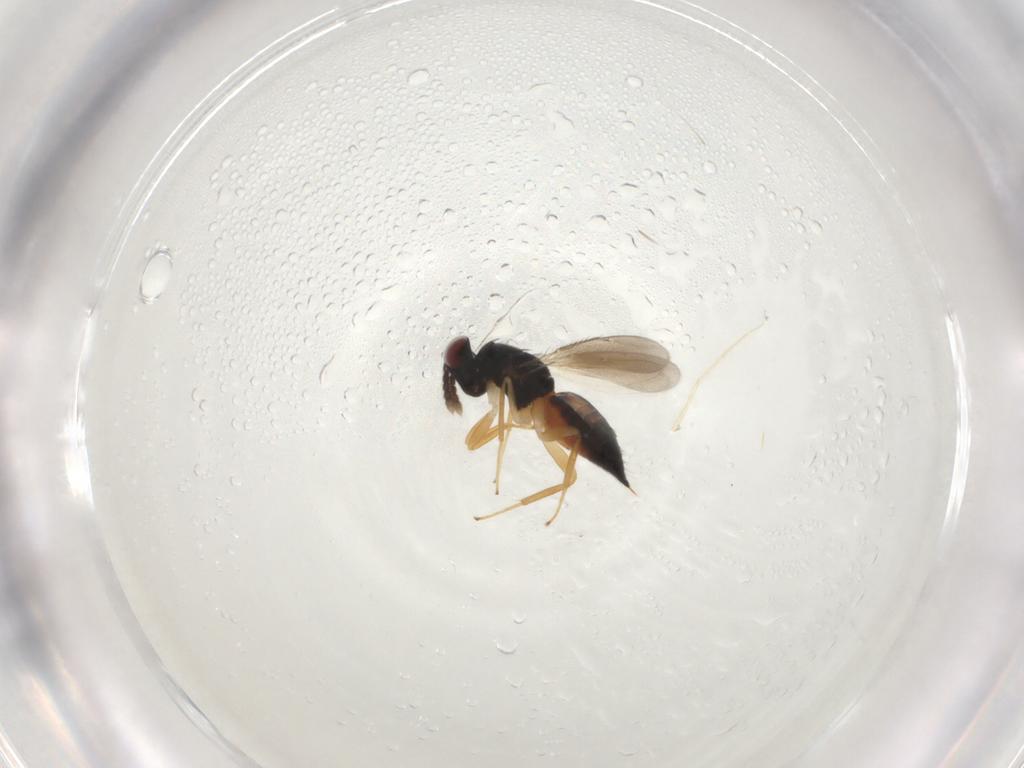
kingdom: Animalia
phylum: Arthropoda
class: Insecta
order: Hymenoptera
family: Eulophidae
